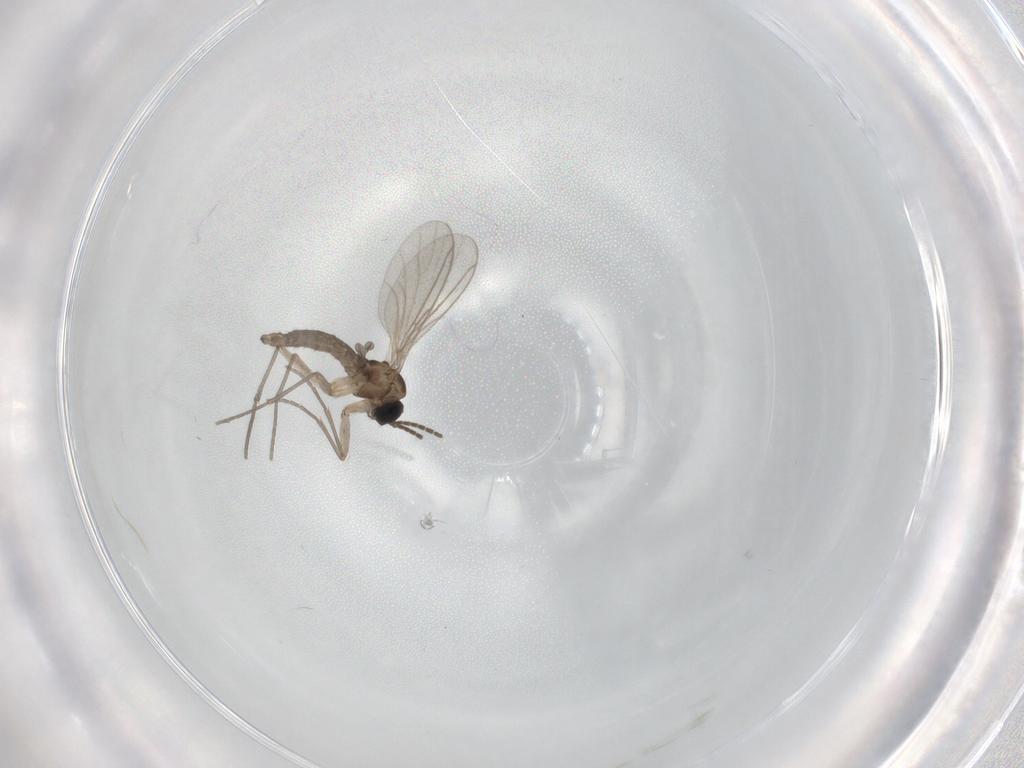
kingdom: Animalia
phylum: Arthropoda
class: Insecta
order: Diptera
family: Sciaridae
